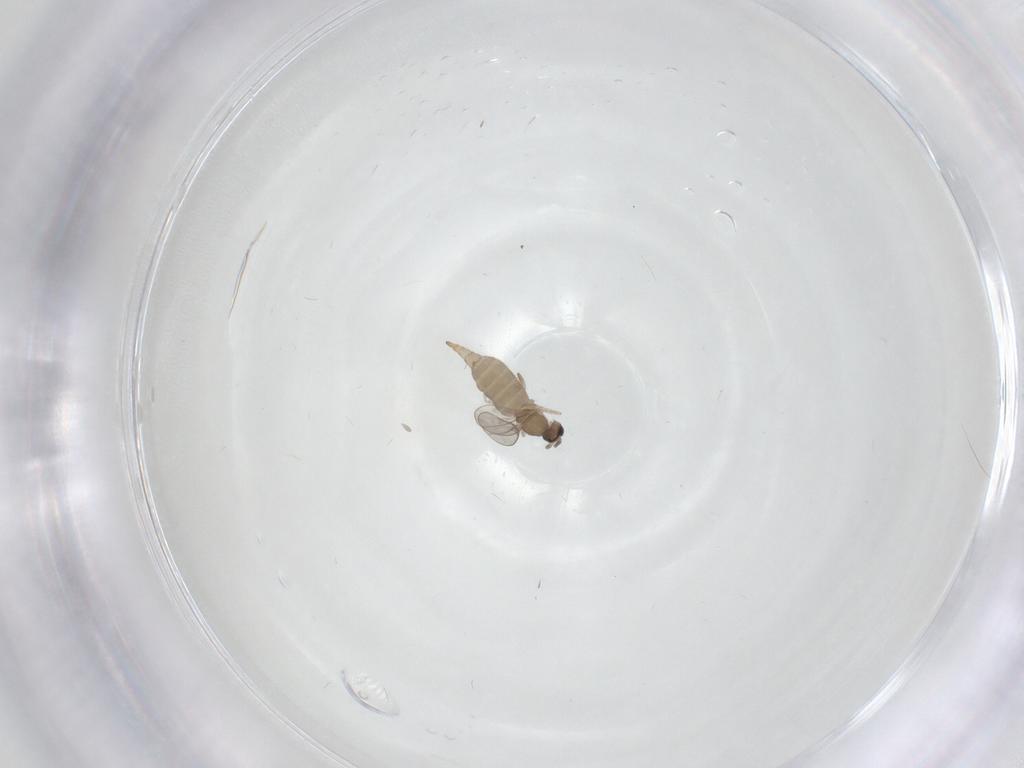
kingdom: Animalia
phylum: Arthropoda
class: Insecta
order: Diptera
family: Cecidomyiidae
